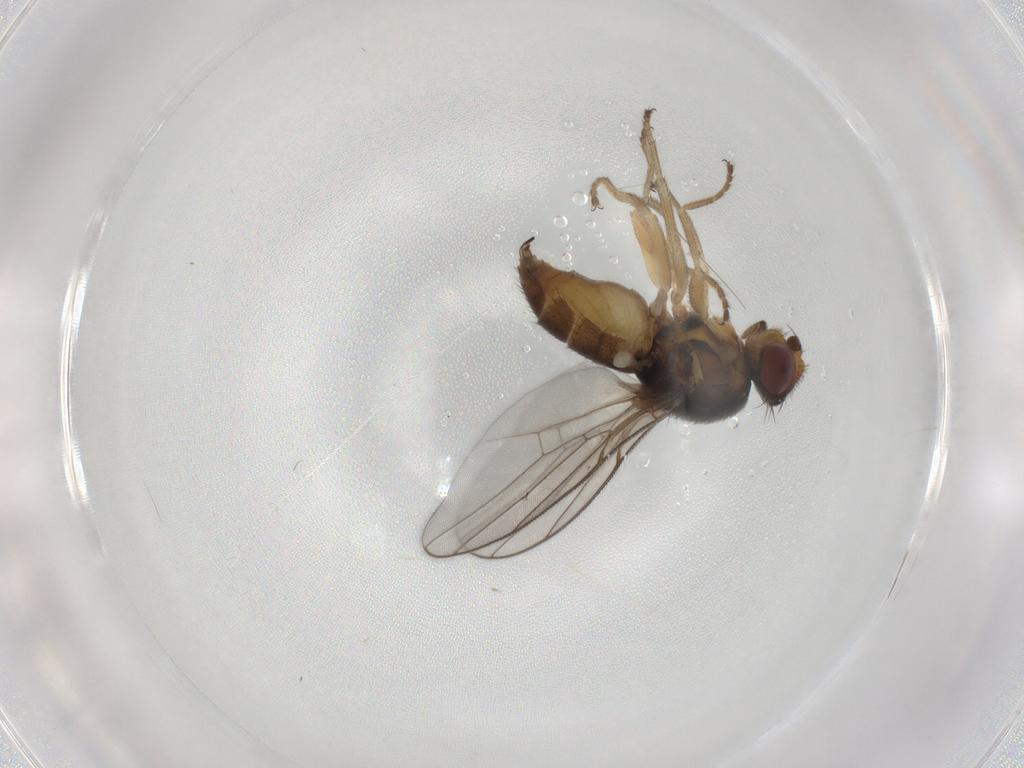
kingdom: Animalia
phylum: Arthropoda
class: Insecta
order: Diptera
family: Chloropidae
